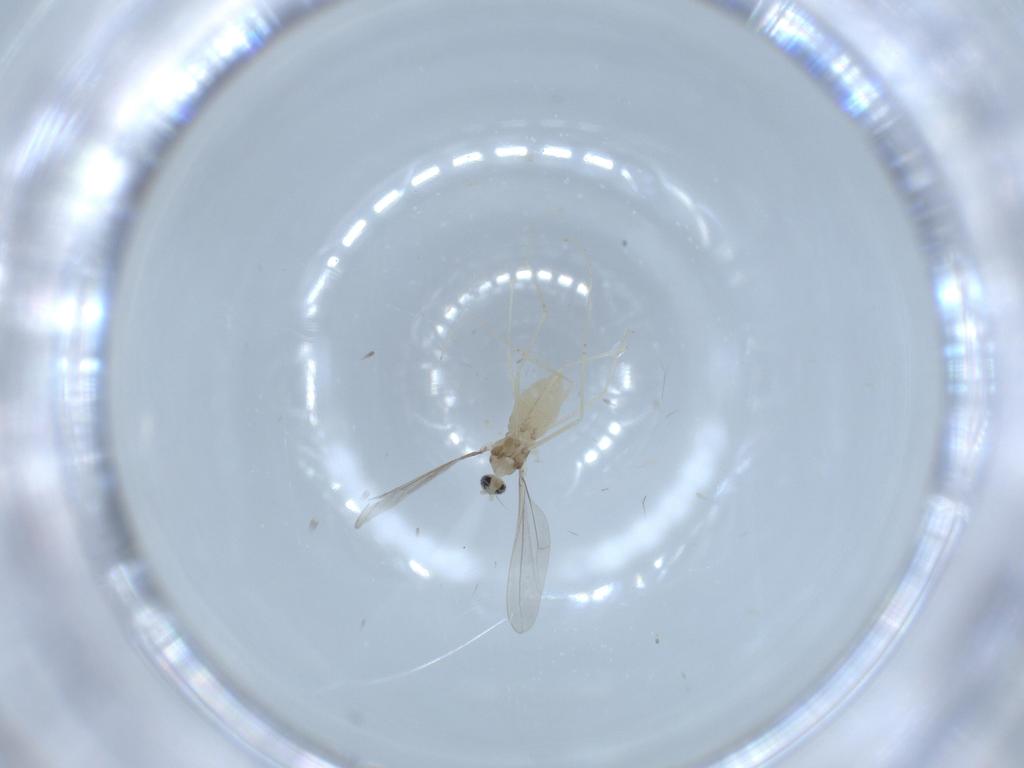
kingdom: Animalia
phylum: Arthropoda
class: Insecta
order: Diptera
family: Cecidomyiidae
